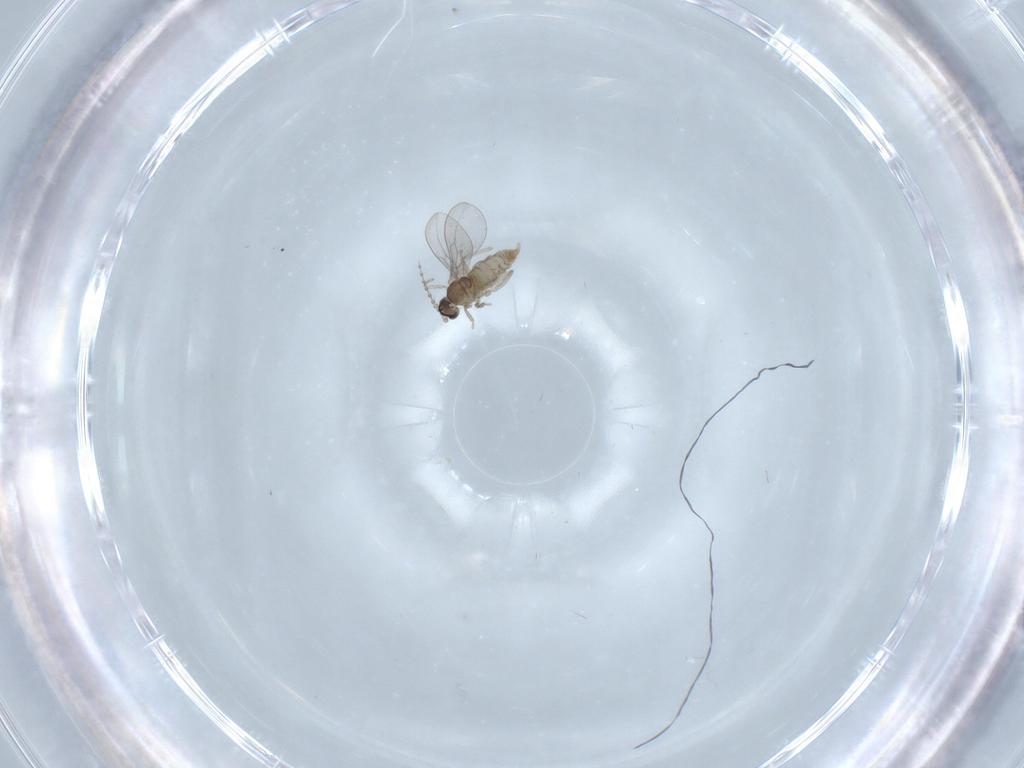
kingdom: Animalia
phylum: Arthropoda
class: Insecta
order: Diptera
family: Cecidomyiidae
